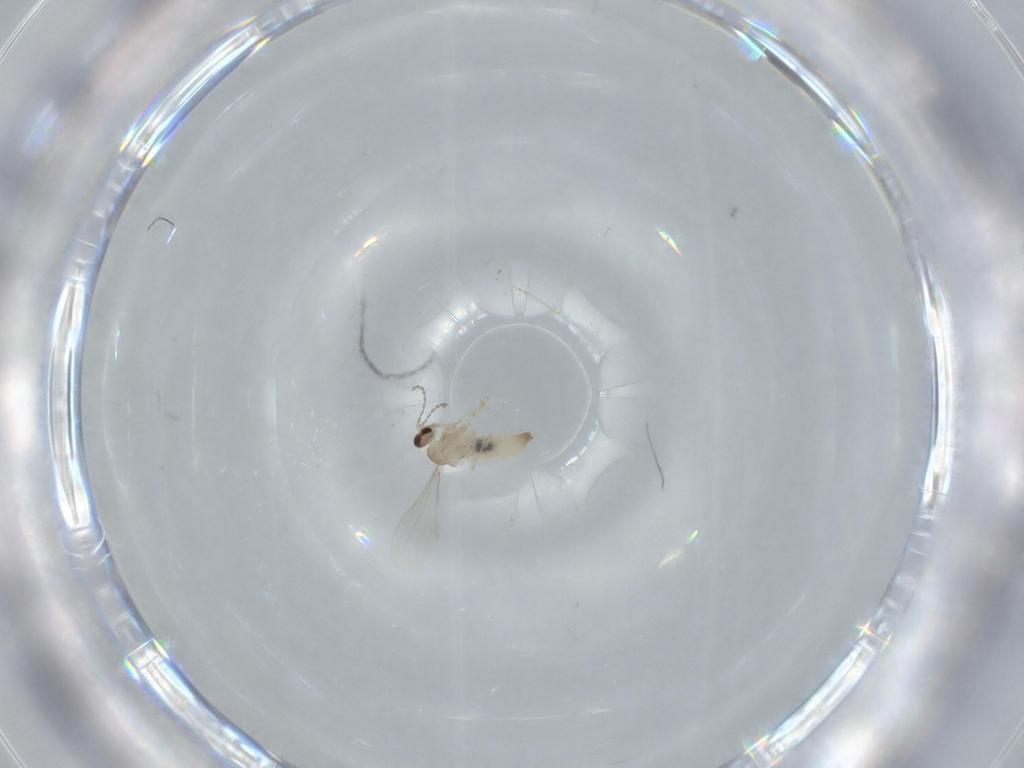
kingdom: Animalia
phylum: Arthropoda
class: Insecta
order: Diptera
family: Cecidomyiidae
